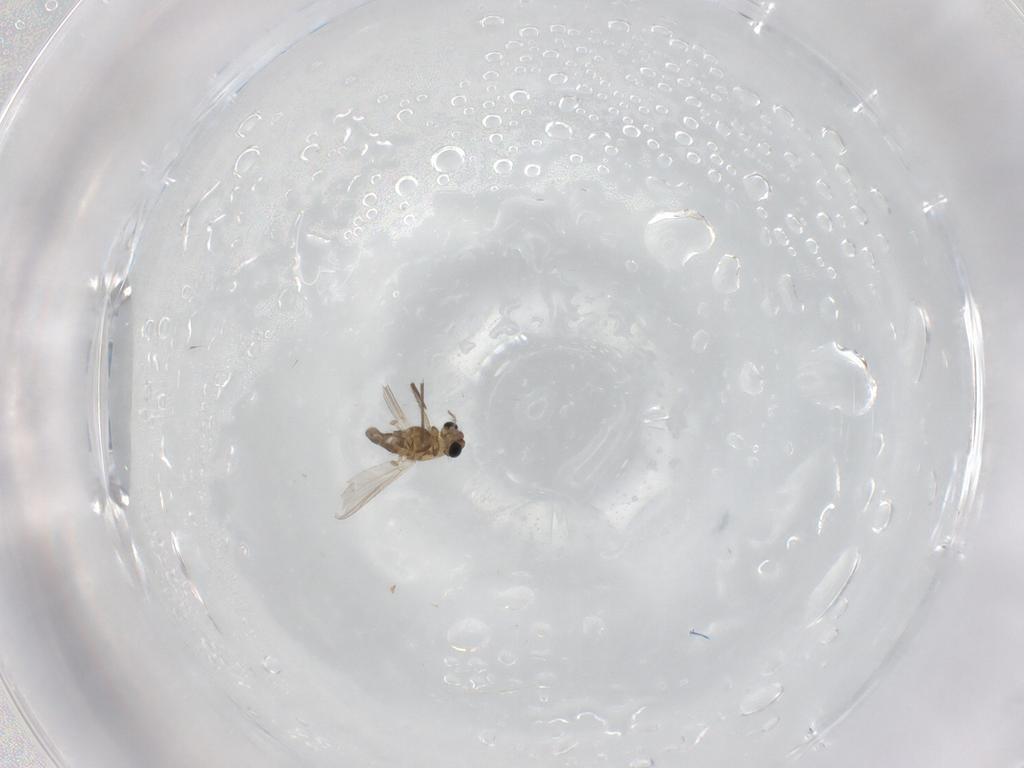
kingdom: Animalia
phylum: Arthropoda
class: Insecta
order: Diptera
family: Chironomidae
